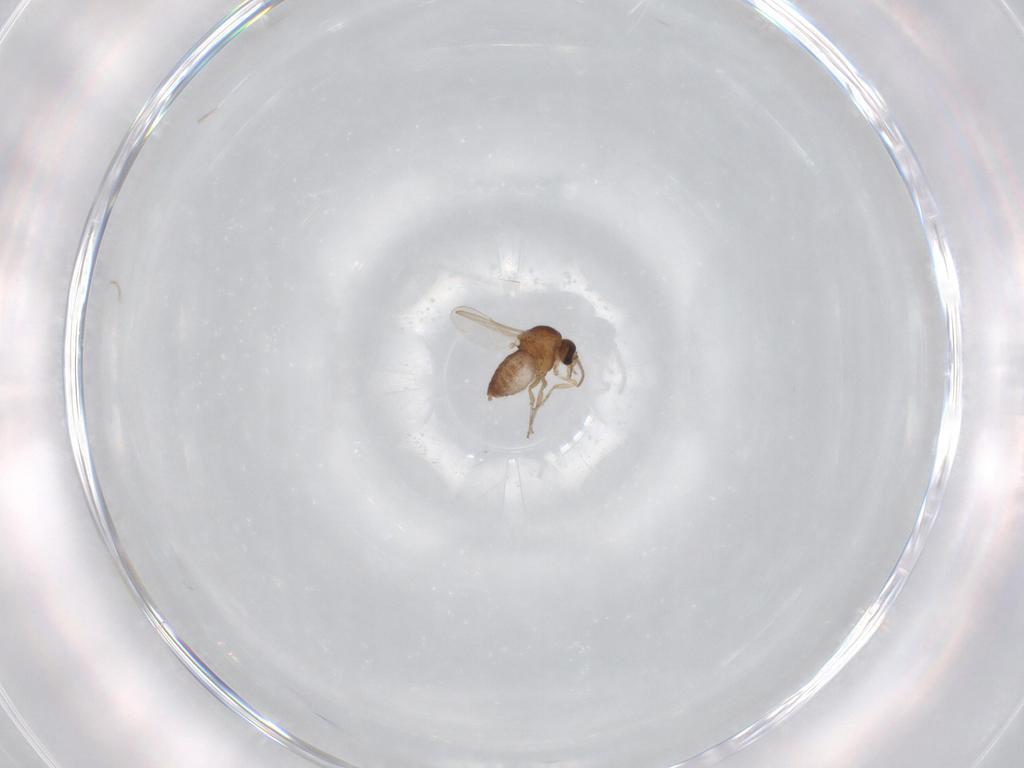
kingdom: Animalia
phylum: Arthropoda
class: Insecta
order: Diptera
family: Ceratopogonidae
